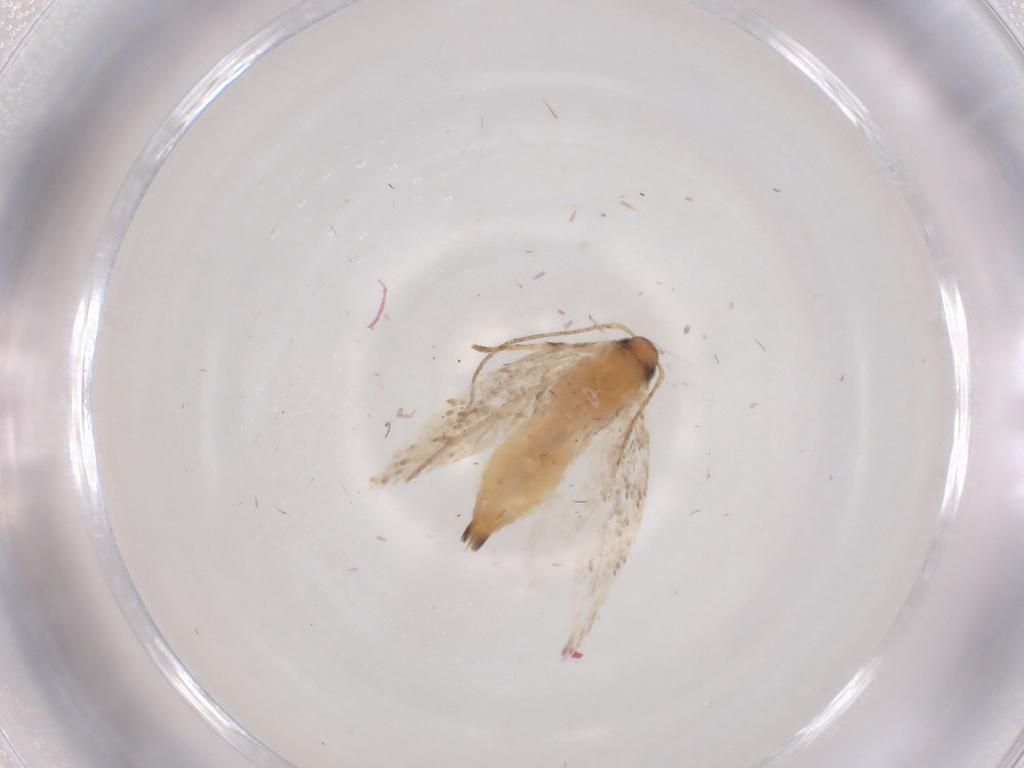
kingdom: Animalia
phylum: Arthropoda
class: Insecta
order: Lepidoptera
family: Gelechiidae
